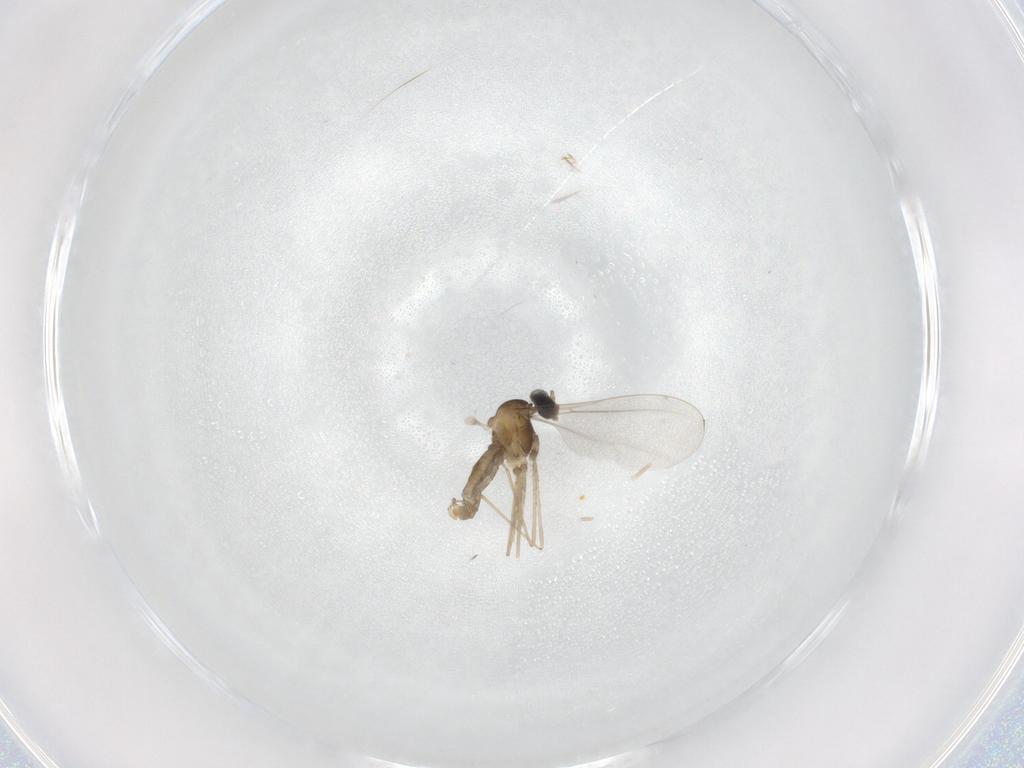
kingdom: Animalia
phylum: Arthropoda
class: Insecta
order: Diptera
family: Cecidomyiidae
